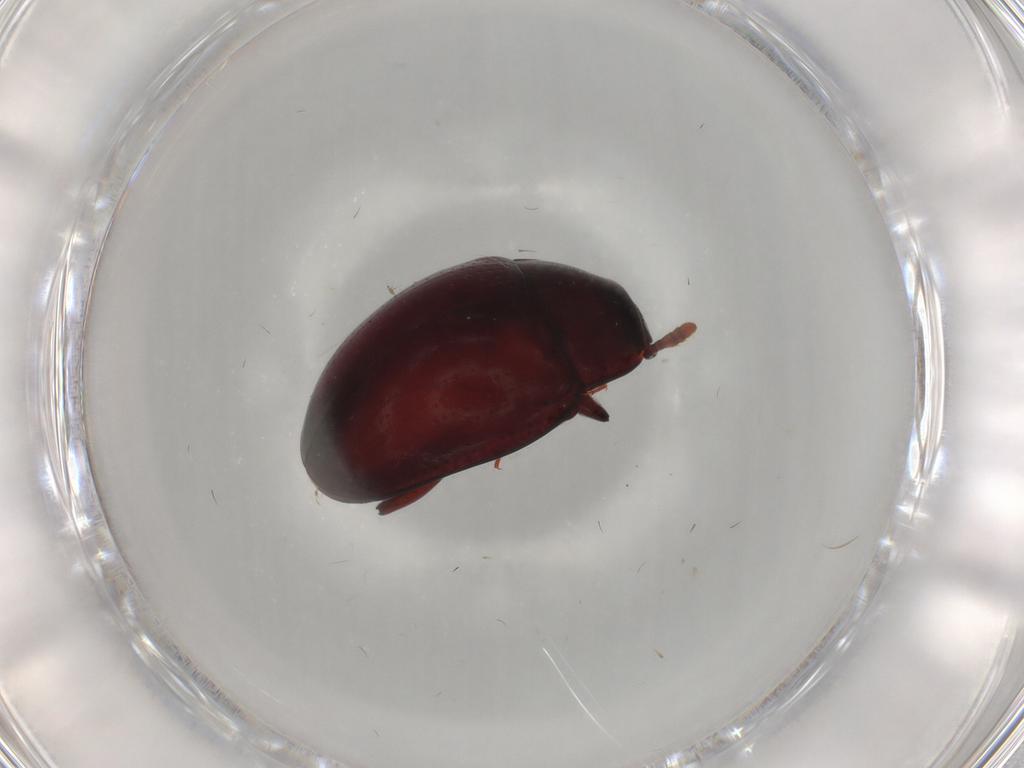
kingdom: Animalia
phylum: Arthropoda
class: Insecta
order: Coleoptera
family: Zopheridae
